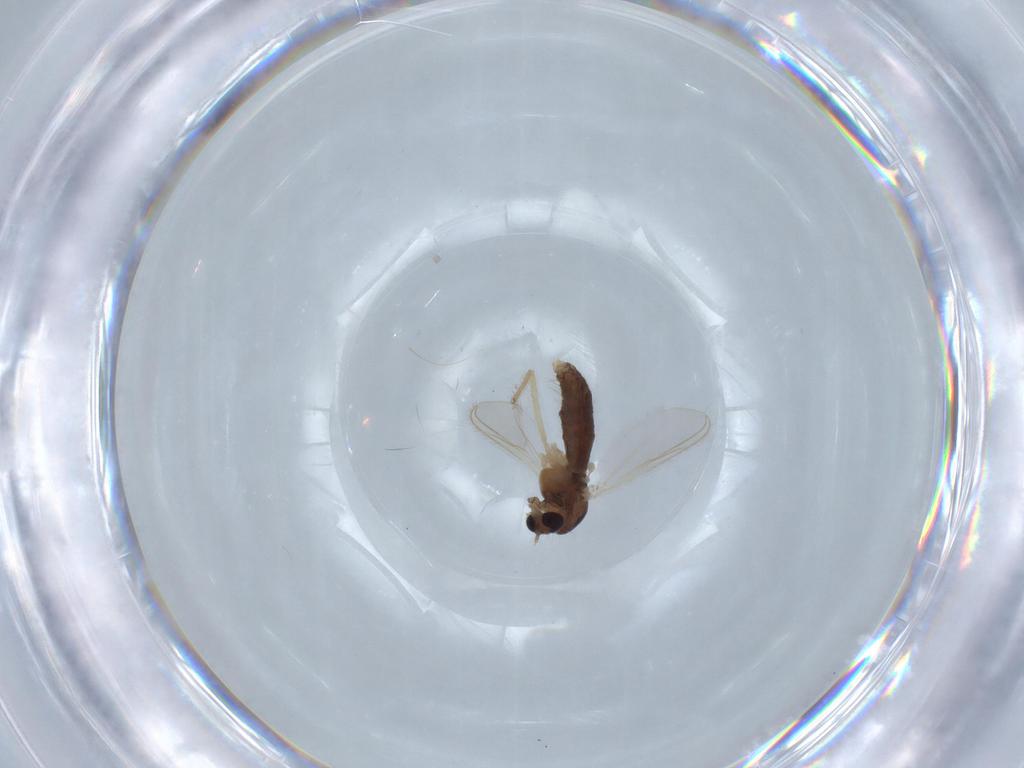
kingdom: Animalia
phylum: Arthropoda
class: Insecta
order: Diptera
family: Chironomidae
